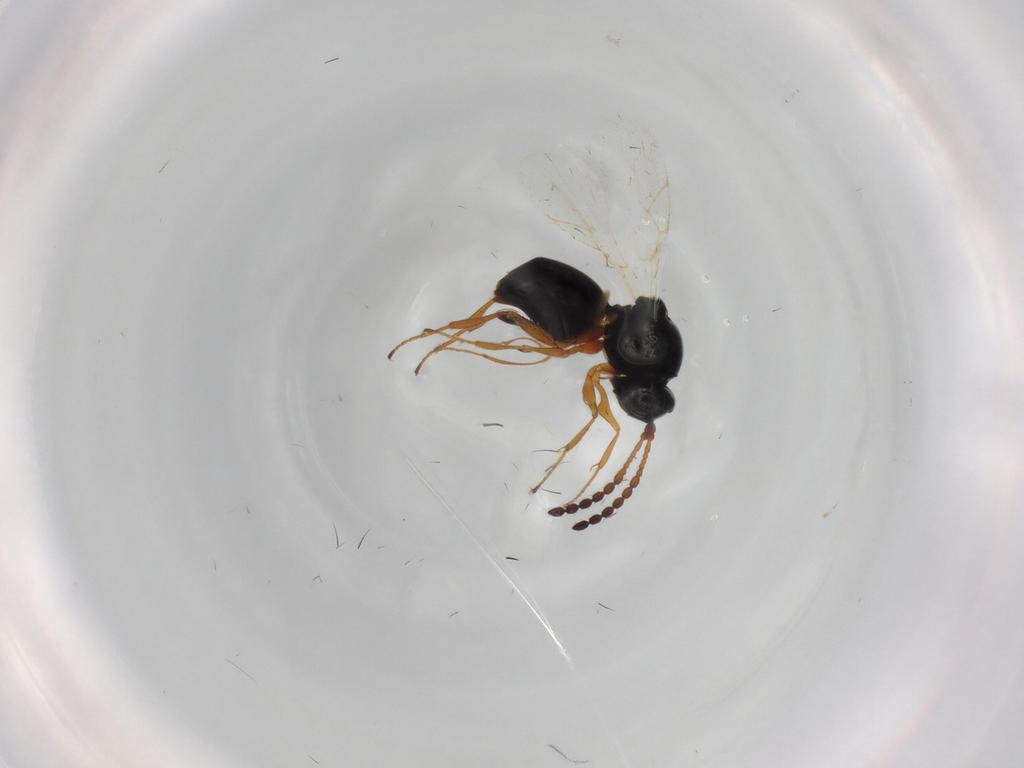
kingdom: Animalia
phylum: Arthropoda
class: Insecta
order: Hymenoptera
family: Figitidae
